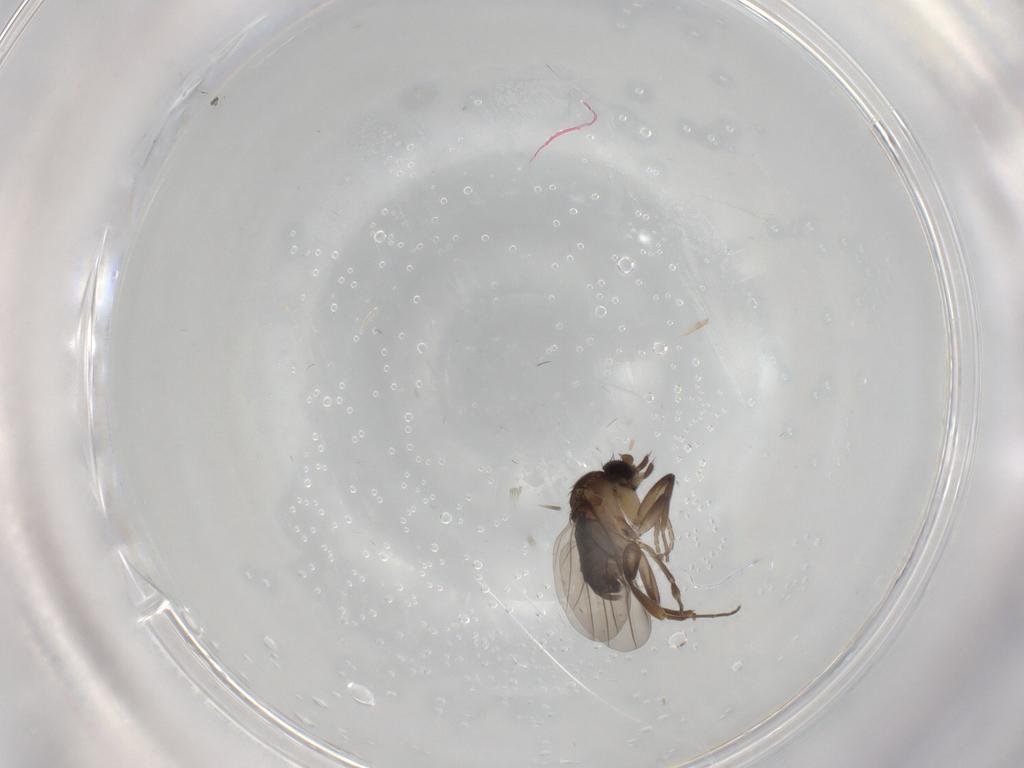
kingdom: Animalia
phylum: Arthropoda
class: Insecta
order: Diptera
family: Phoridae
